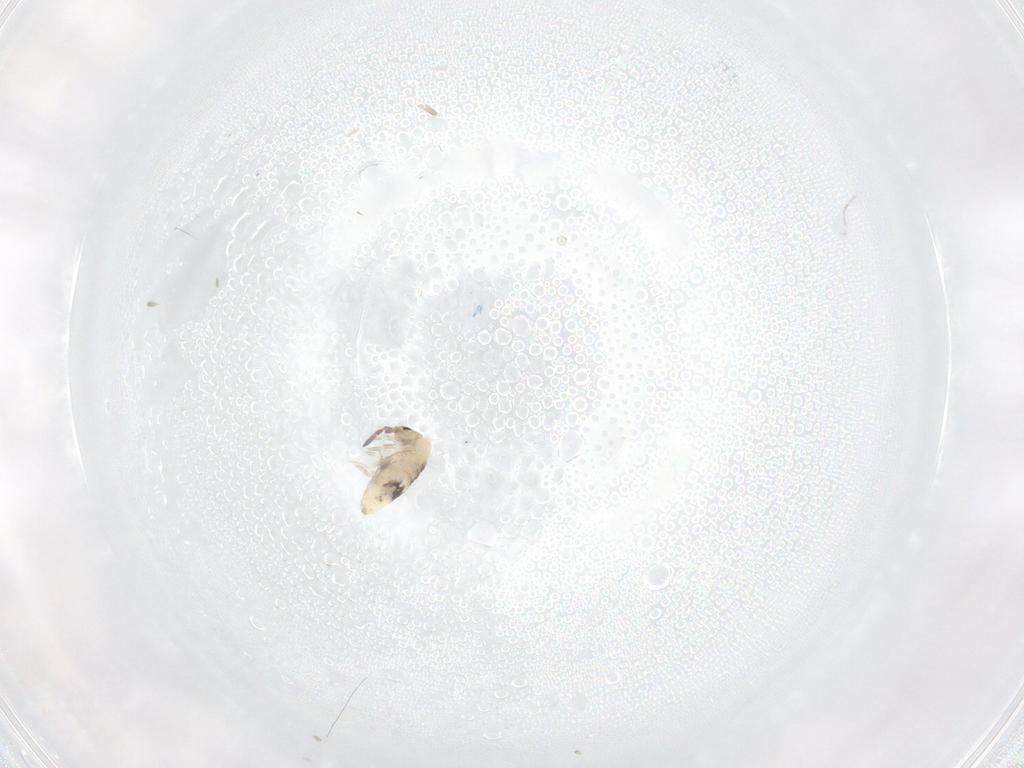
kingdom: Animalia
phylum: Arthropoda
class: Collembola
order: Entomobryomorpha
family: Entomobryidae
